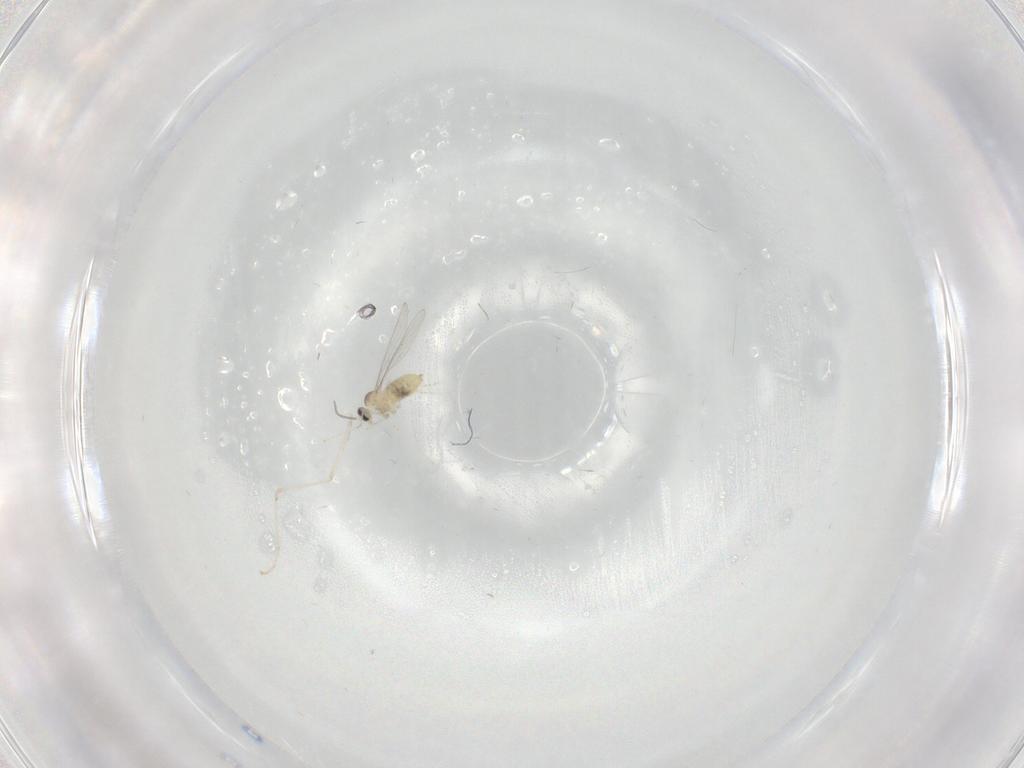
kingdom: Animalia
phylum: Arthropoda
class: Insecta
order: Diptera
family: Cecidomyiidae
